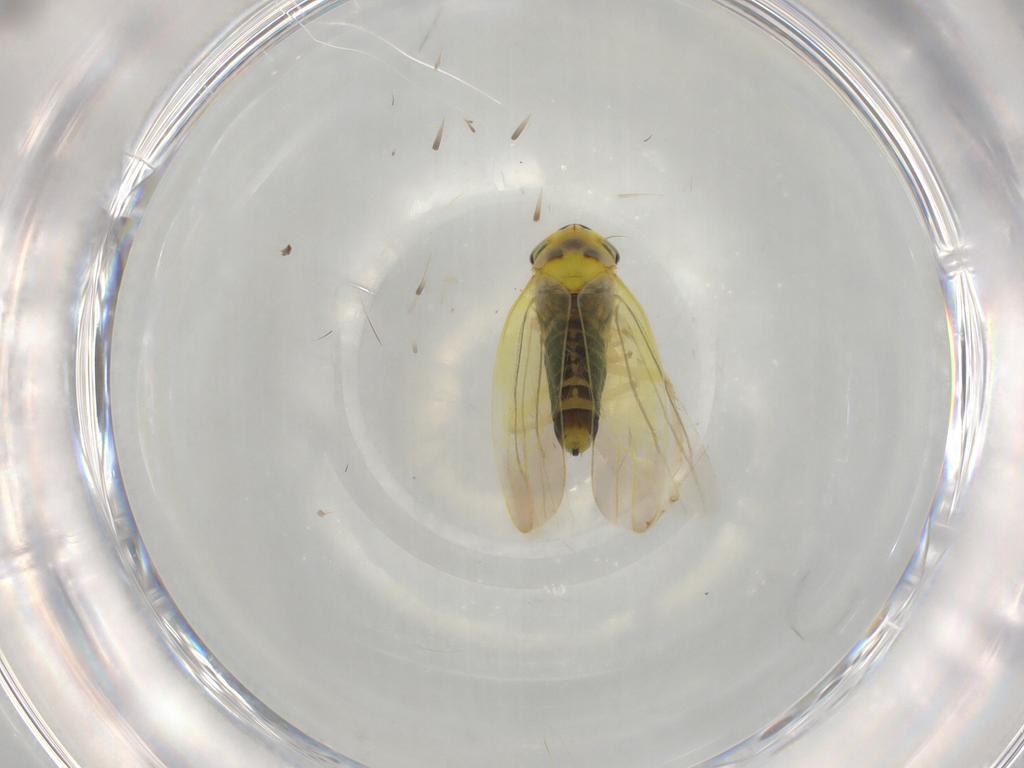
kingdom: Animalia
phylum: Arthropoda
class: Insecta
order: Hemiptera
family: Cicadellidae
